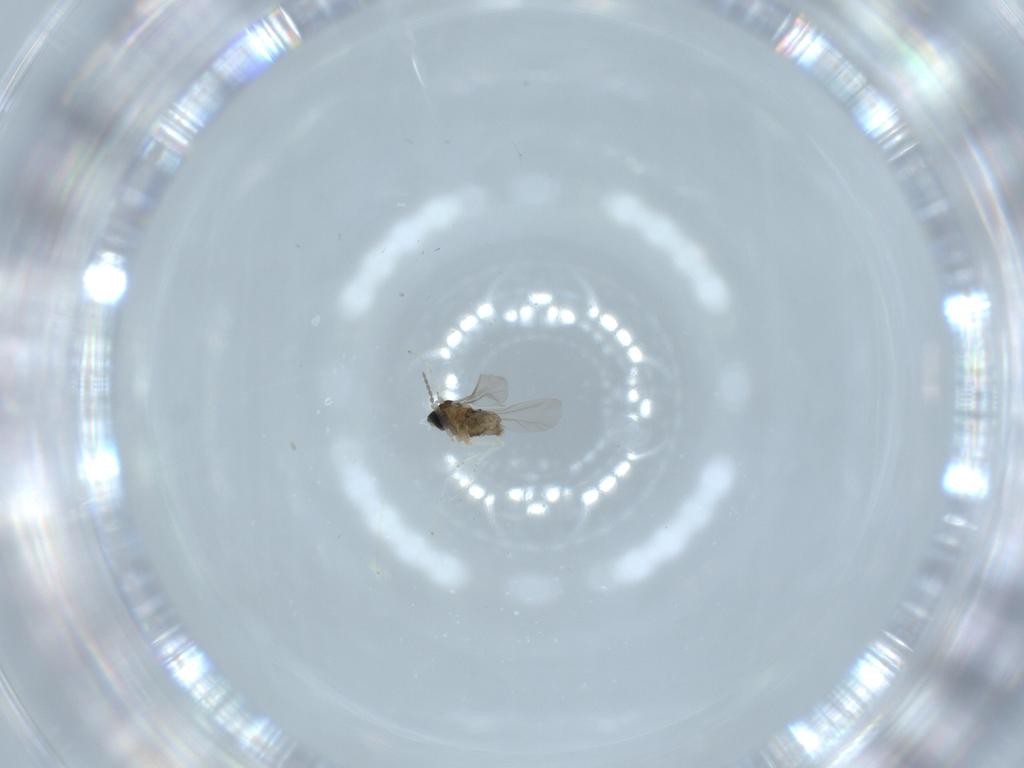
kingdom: Animalia
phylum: Arthropoda
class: Insecta
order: Diptera
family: Cecidomyiidae
